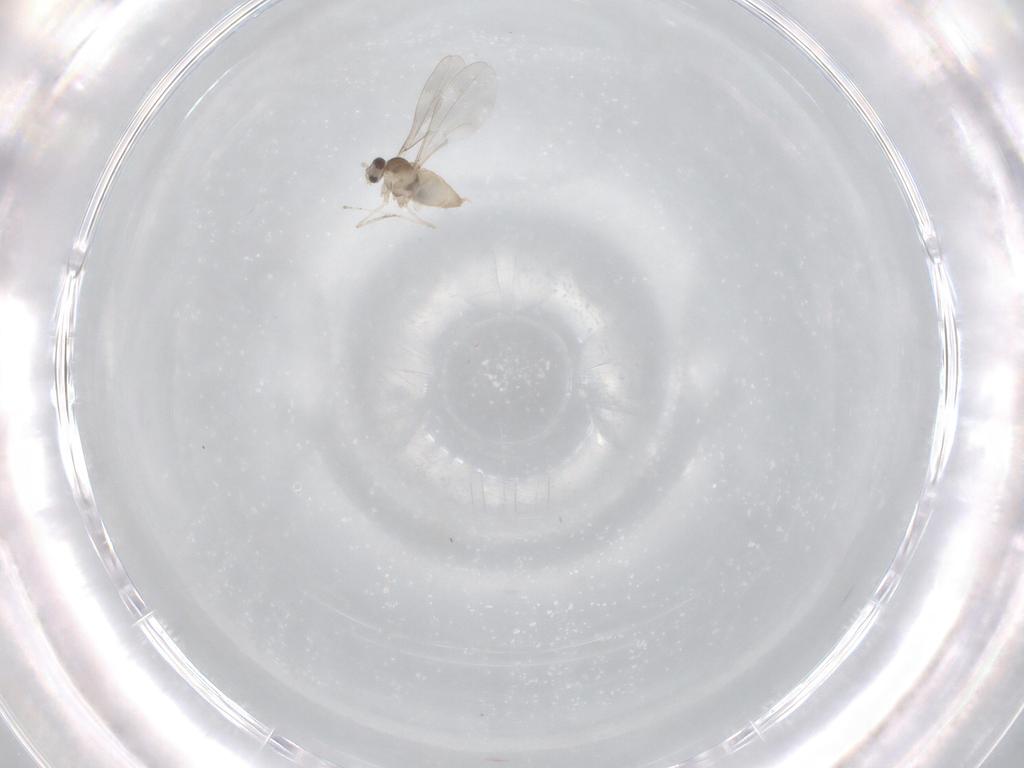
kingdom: Animalia
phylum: Arthropoda
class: Insecta
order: Diptera
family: Cecidomyiidae
